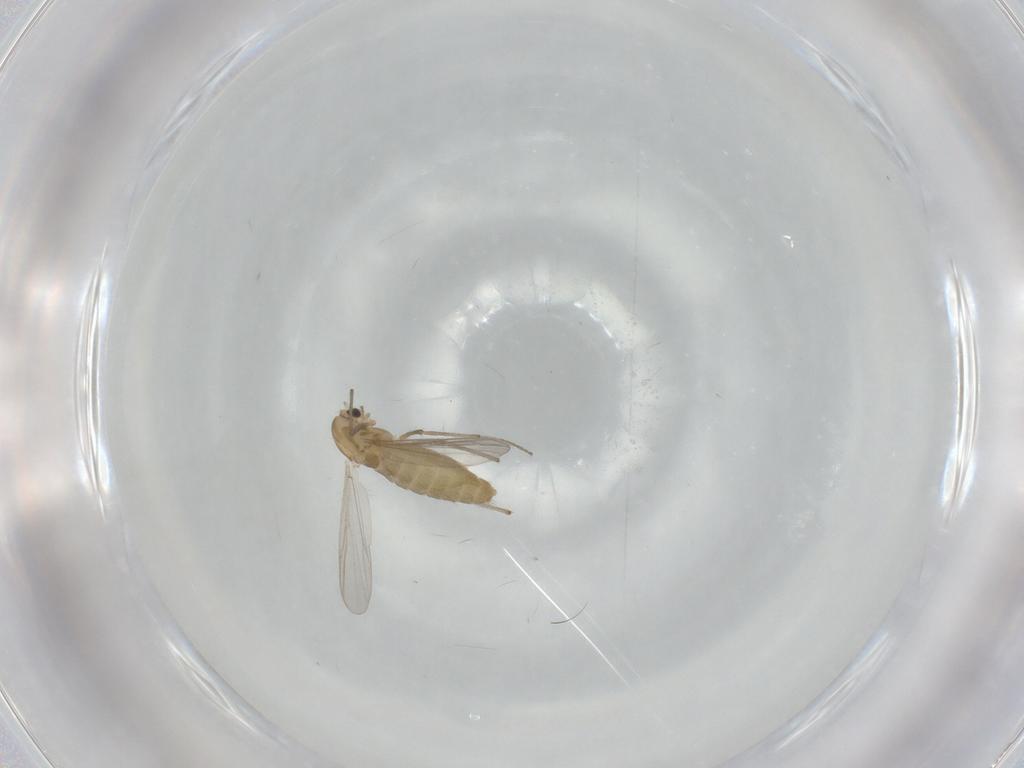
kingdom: Animalia
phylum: Arthropoda
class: Insecta
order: Diptera
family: Chironomidae
